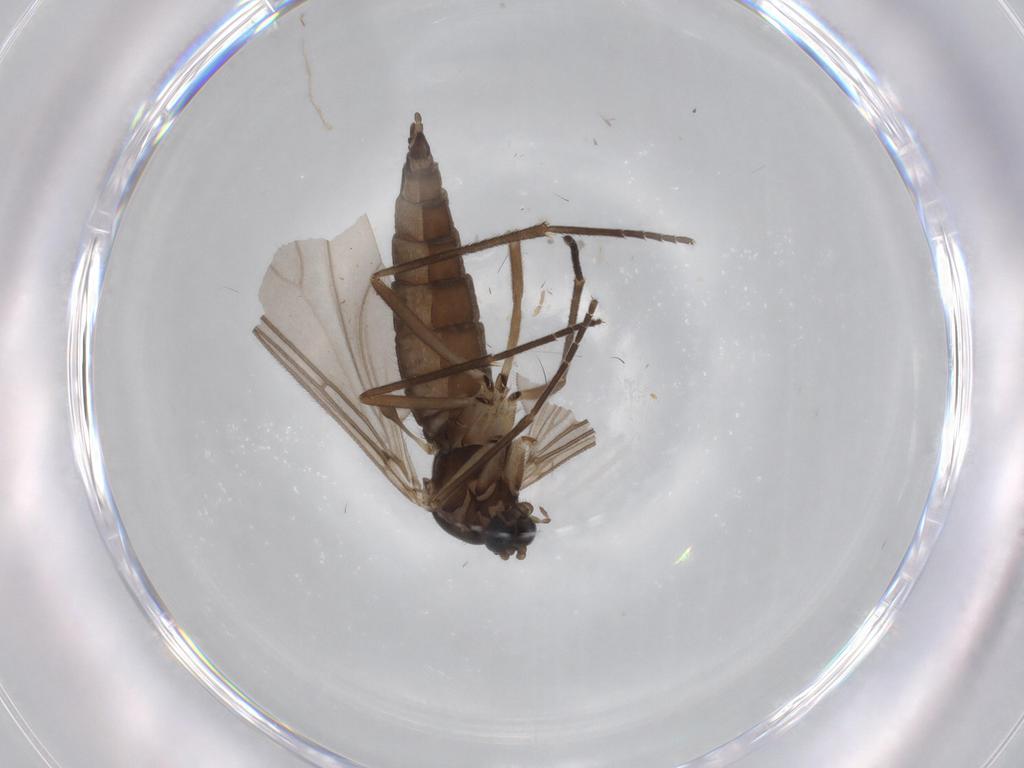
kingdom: Animalia
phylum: Arthropoda
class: Insecta
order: Diptera
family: Sciaridae
